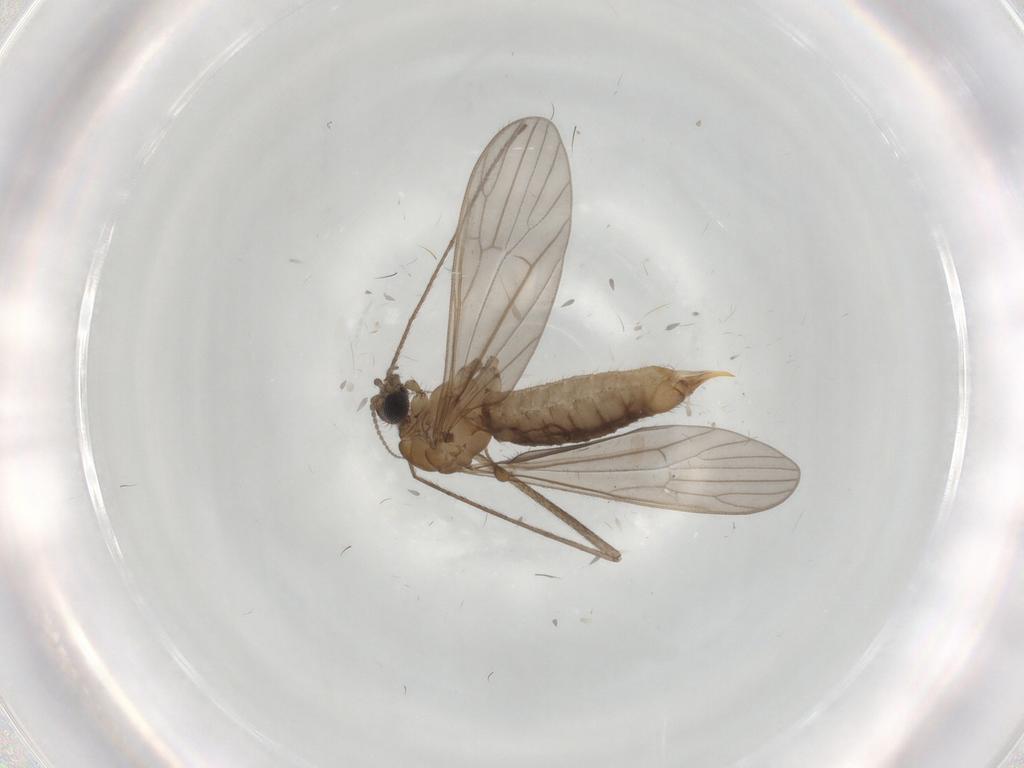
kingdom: Animalia
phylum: Arthropoda
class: Insecta
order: Diptera
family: Limoniidae
